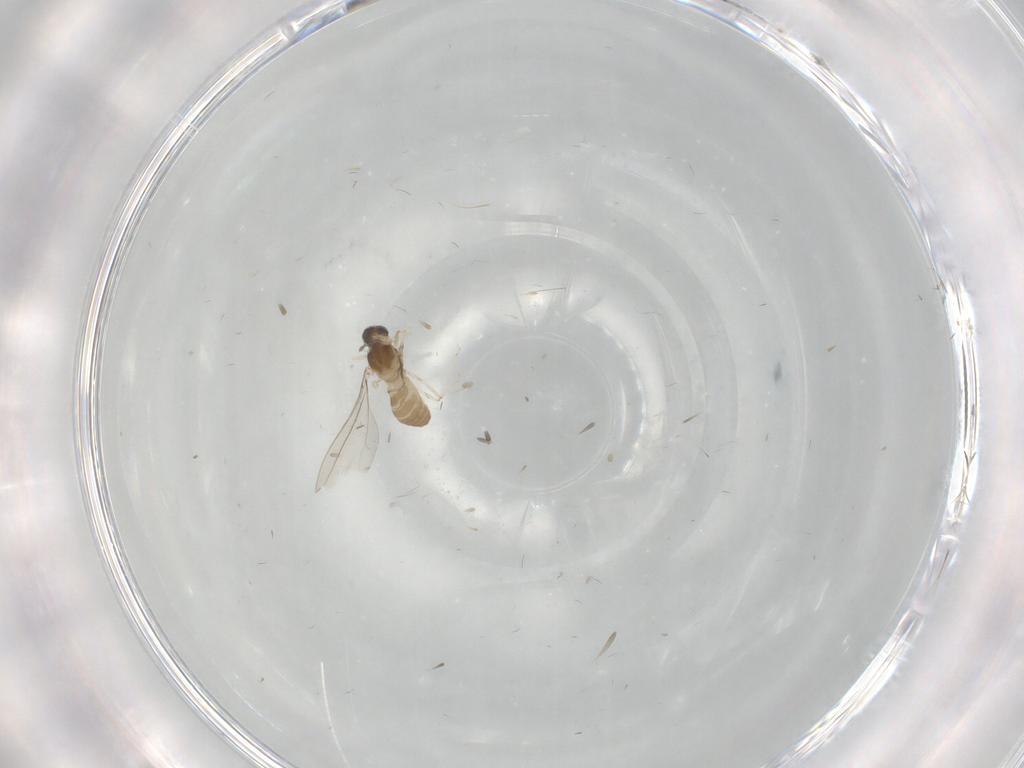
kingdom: Animalia
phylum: Arthropoda
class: Insecta
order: Diptera
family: Cecidomyiidae
